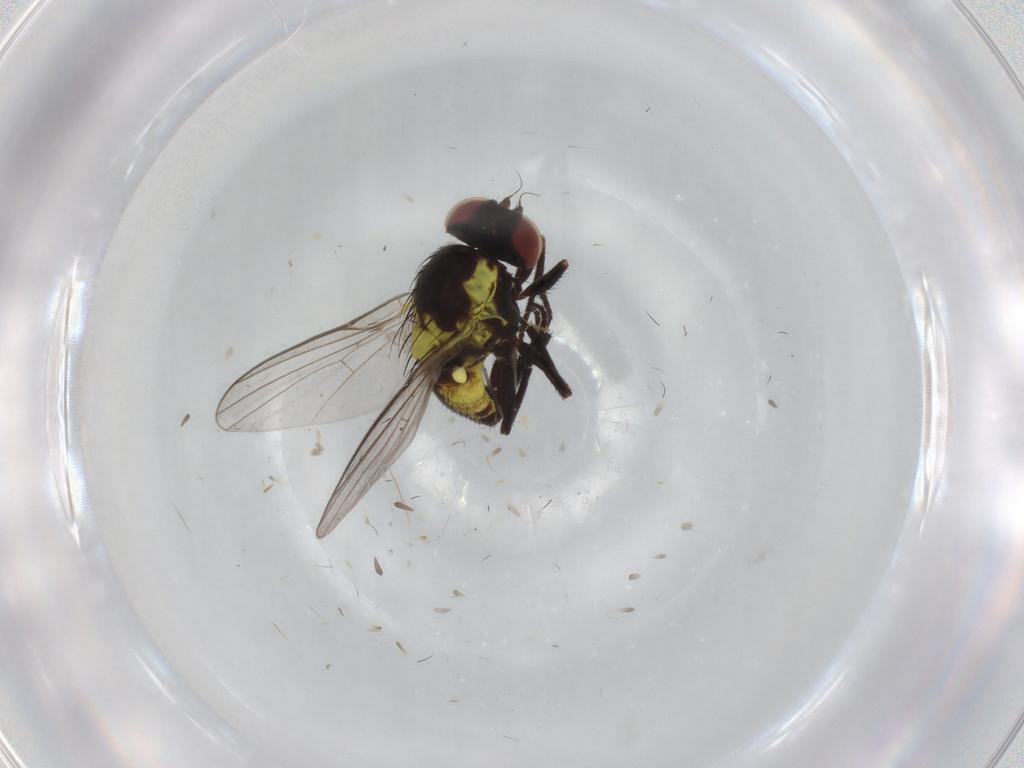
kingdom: Animalia
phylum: Arthropoda
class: Insecta
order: Diptera
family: Agromyzidae
